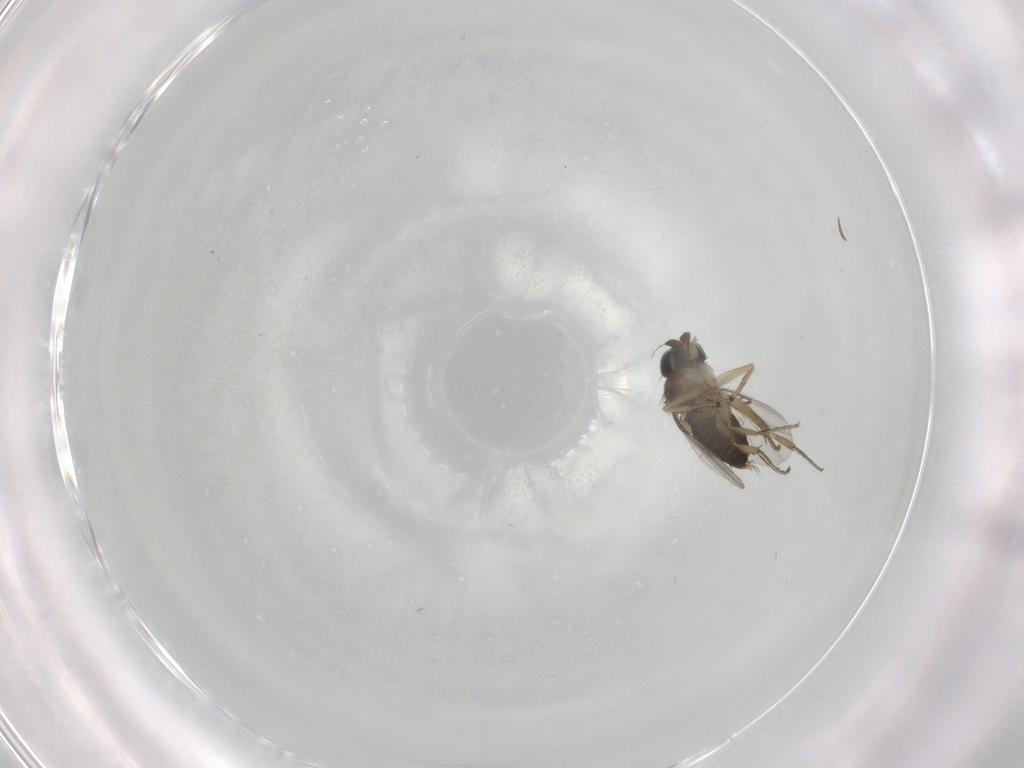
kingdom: Animalia
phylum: Arthropoda
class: Insecta
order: Diptera
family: Phoridae
